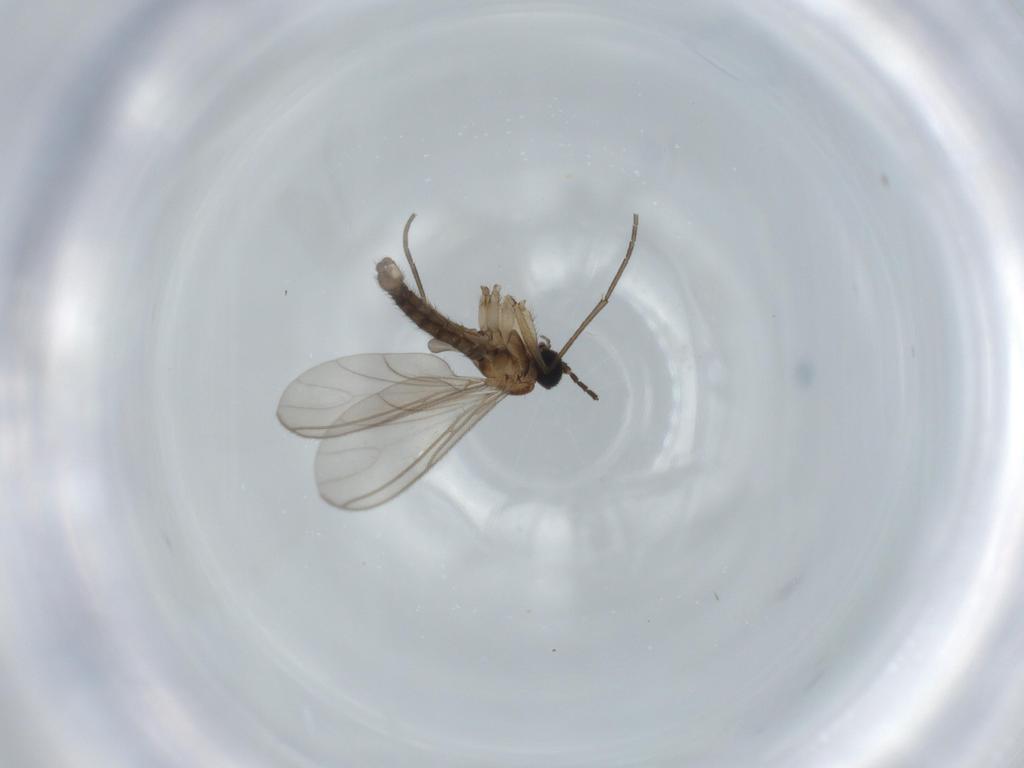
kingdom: Animalia
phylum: Arthropoda
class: Insecta
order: Diptera
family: Sciaridae
